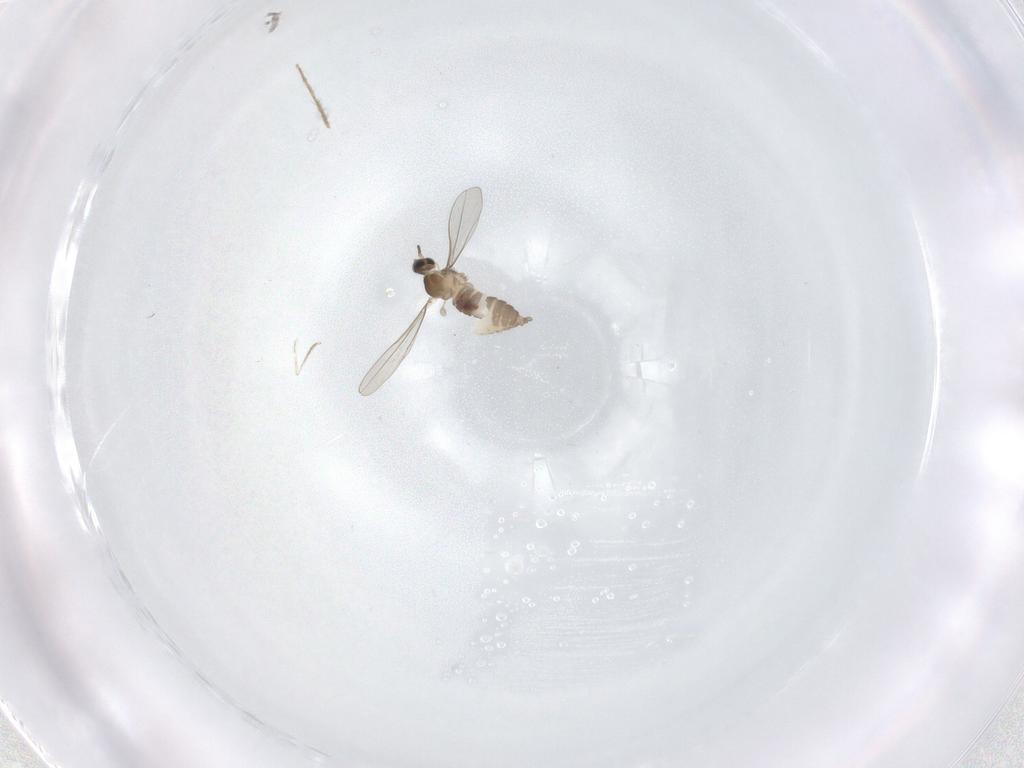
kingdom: Animalia
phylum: Arthropoda
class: Insecta
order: Diptera
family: Cecidomyiidae
